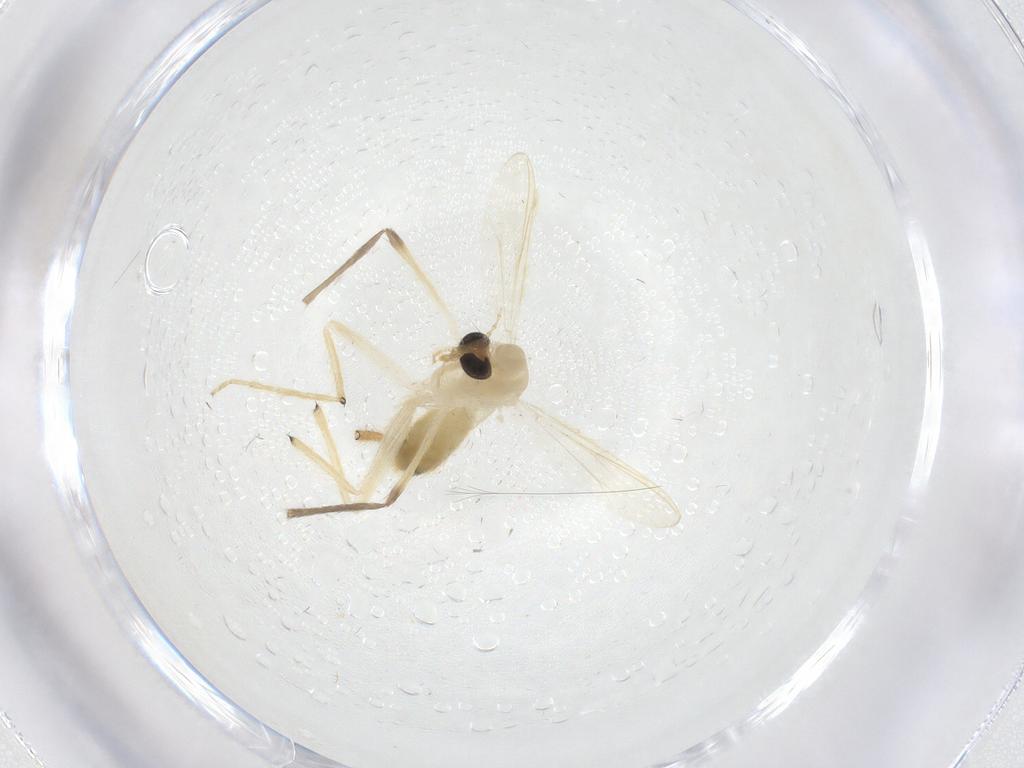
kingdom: Animalia
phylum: Arthropoda
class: Insecta
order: Diptera
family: Chironomidae
